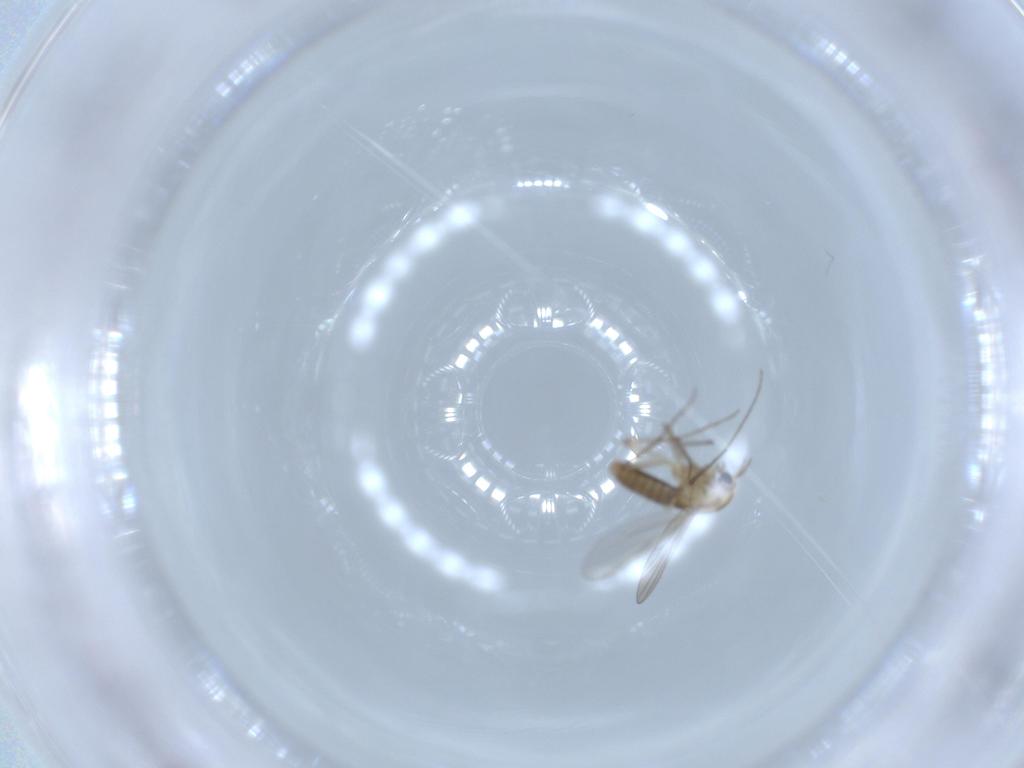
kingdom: Animalia
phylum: Arthropoda
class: Insecta
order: Diptera
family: Chironomidae
